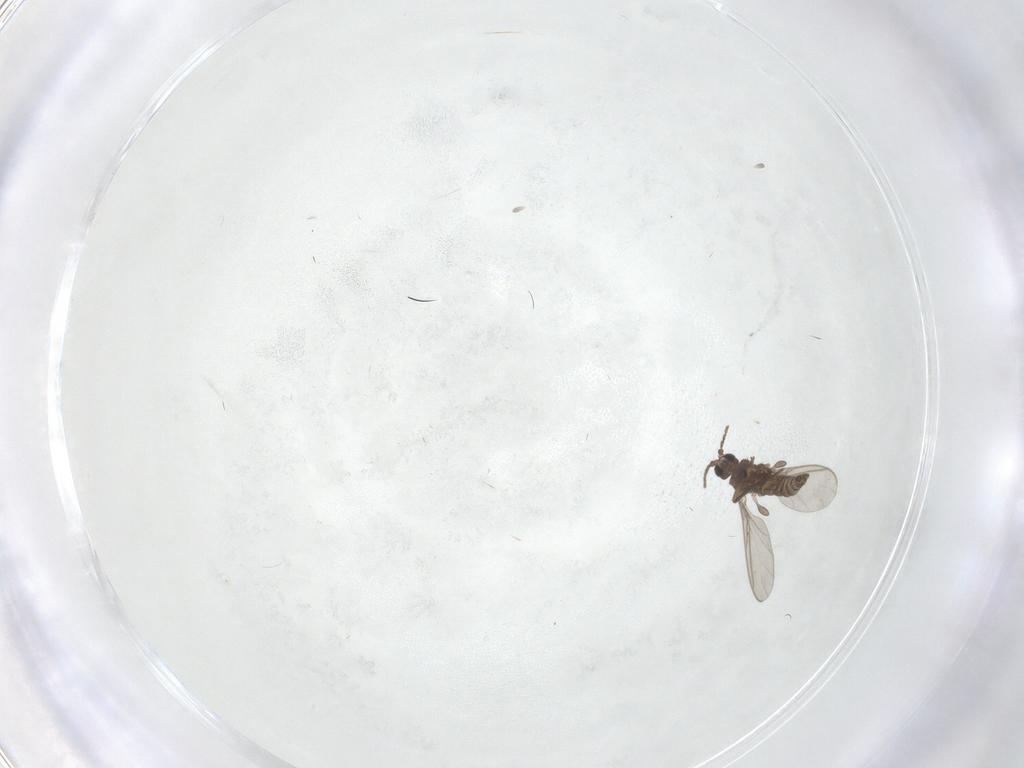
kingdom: Animalia
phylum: Arthropoda
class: Insecta
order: Diptera
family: Sciaridae
